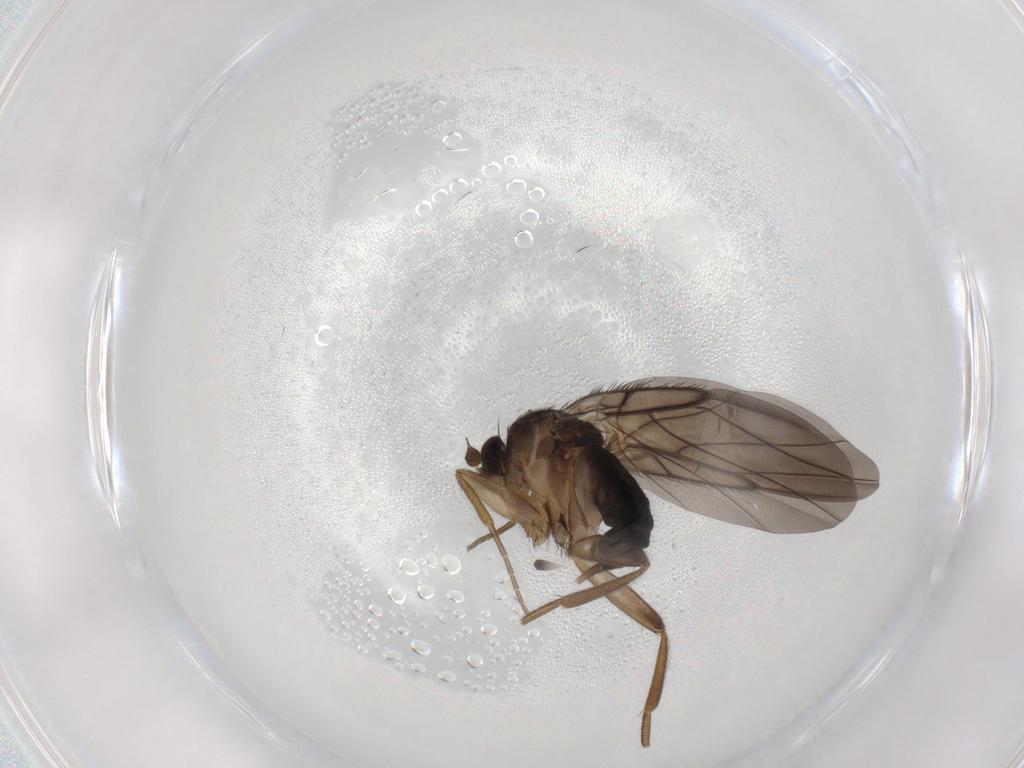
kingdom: Animalia
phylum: Arthropoda
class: Insecta
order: Diptera
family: Phoridae
